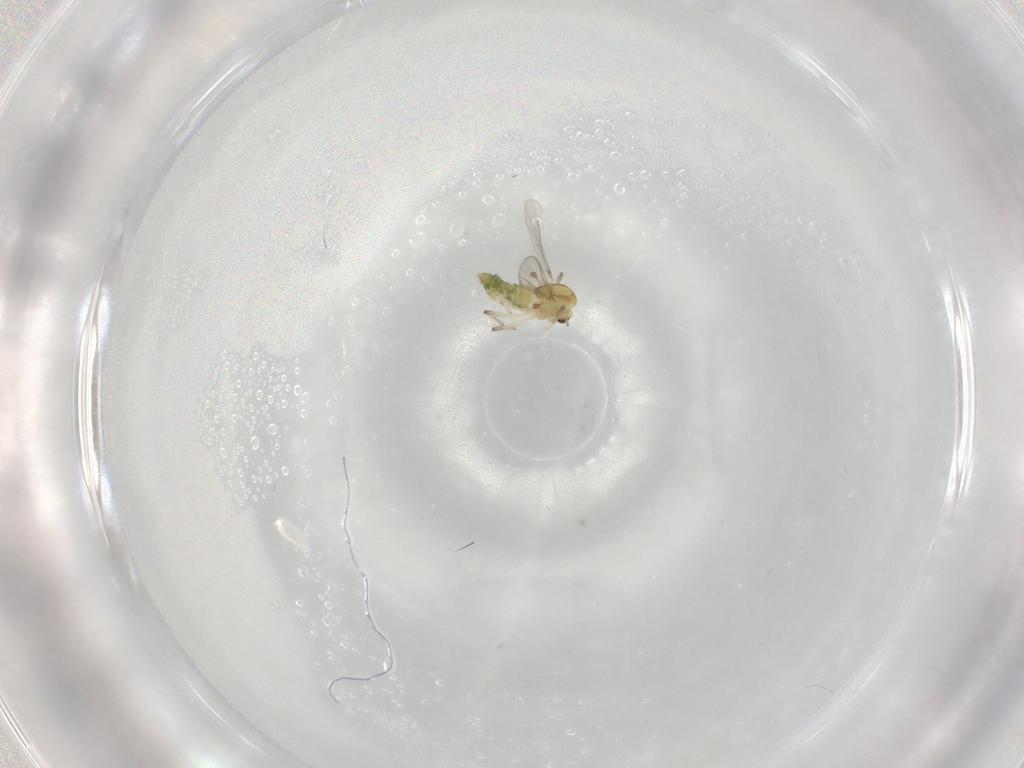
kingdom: Animalia
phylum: Arthropoda
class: Insecta
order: Diptera
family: Chironomidae
